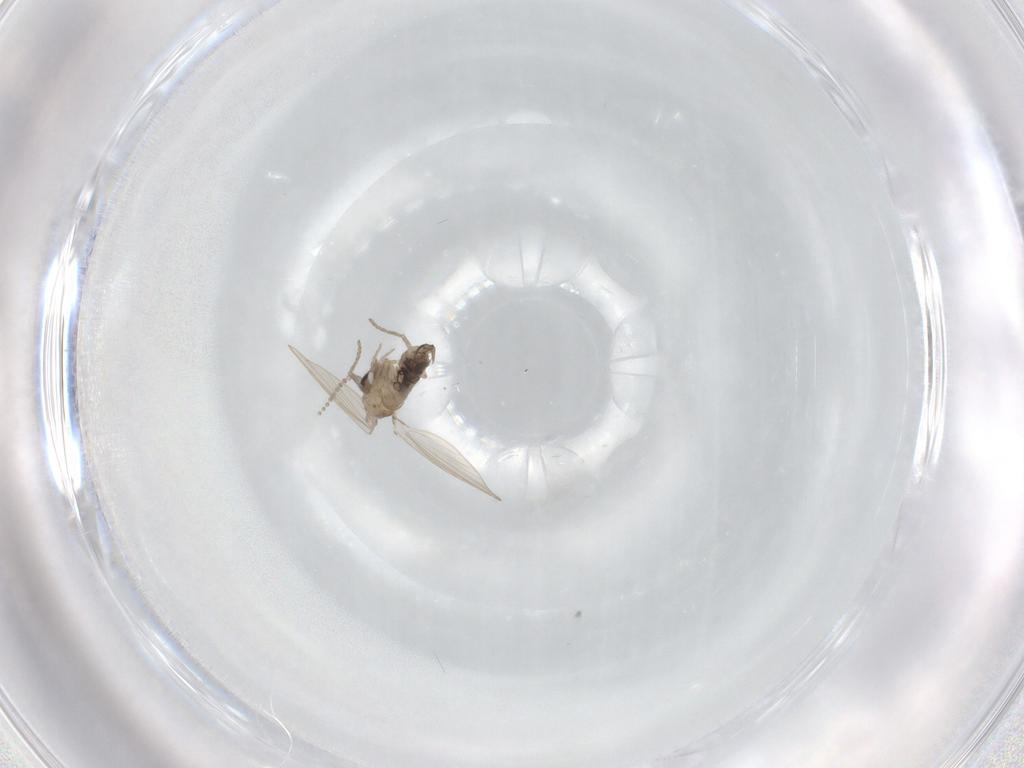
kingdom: Animalia
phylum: Arthropoda
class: Insecta
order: Diptera
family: Psychodidae
